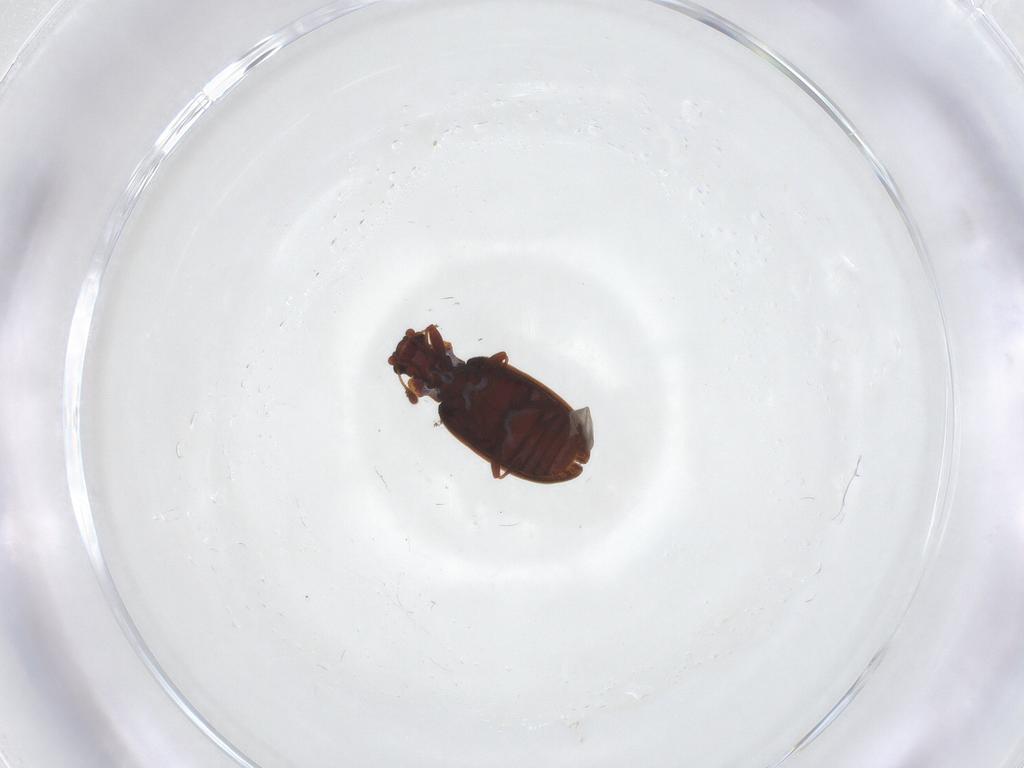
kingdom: Animalia
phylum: Arthropoda
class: Insecta
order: Coleoptera
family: Latridiidae
